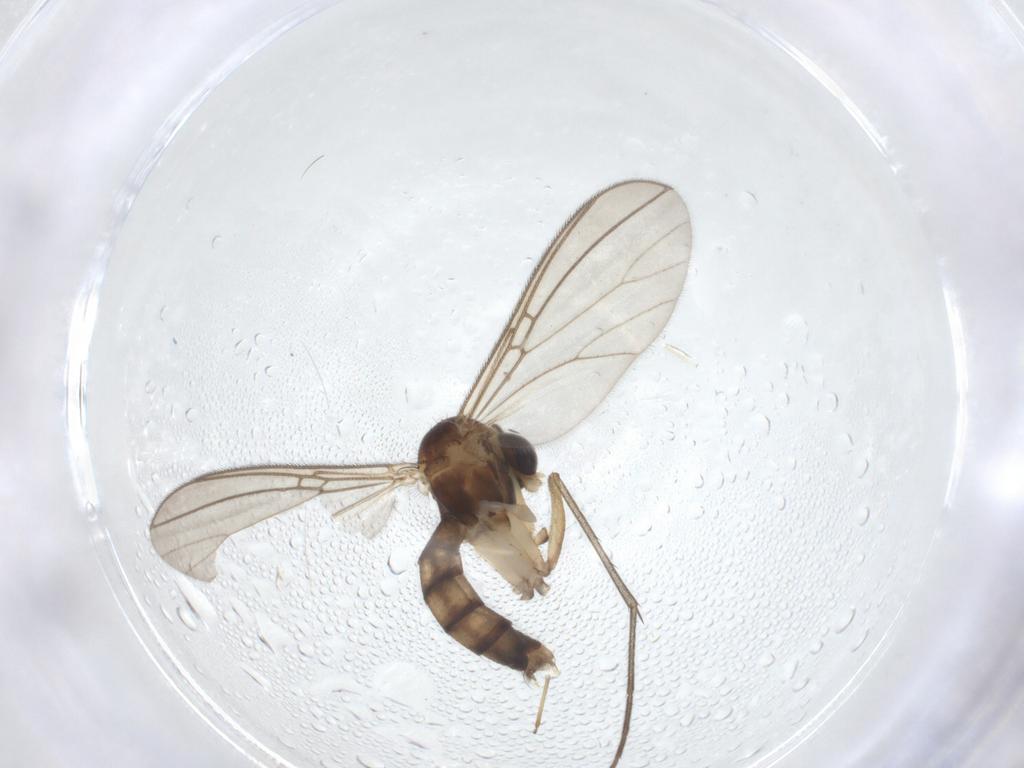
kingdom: Animalia
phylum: Arthropoda
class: Insecta
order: Diptera
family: Mycetophilidae
